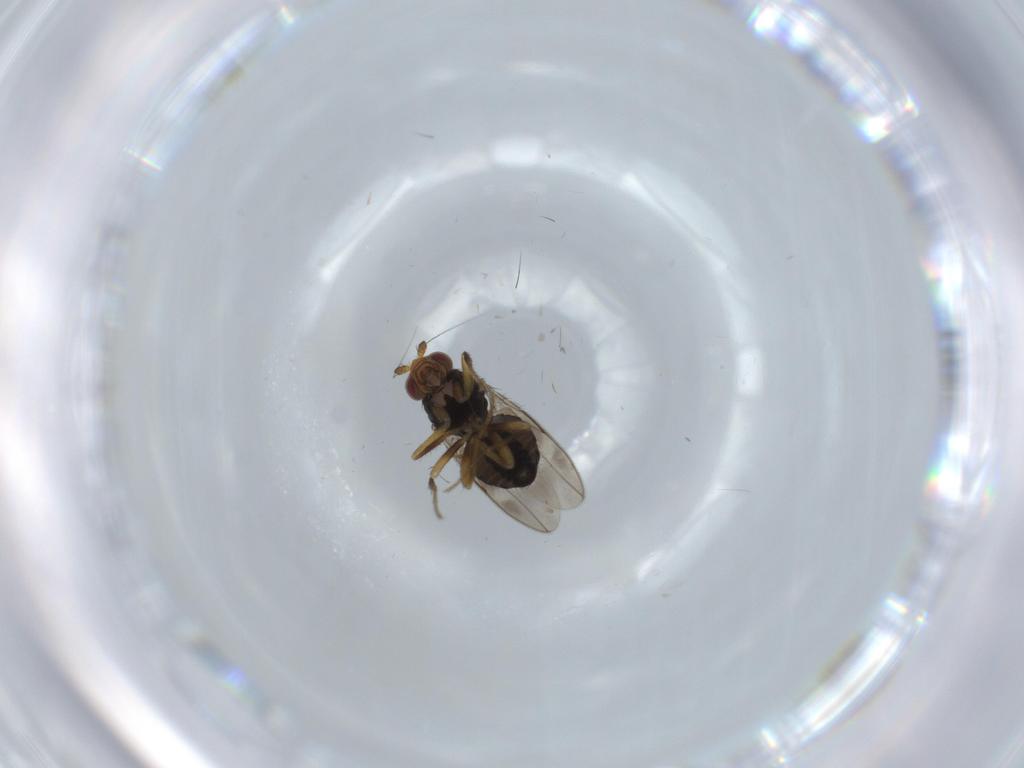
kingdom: Animalia
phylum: Arthropoda
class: Insecta
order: Diptera
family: Sphaeroceridae
